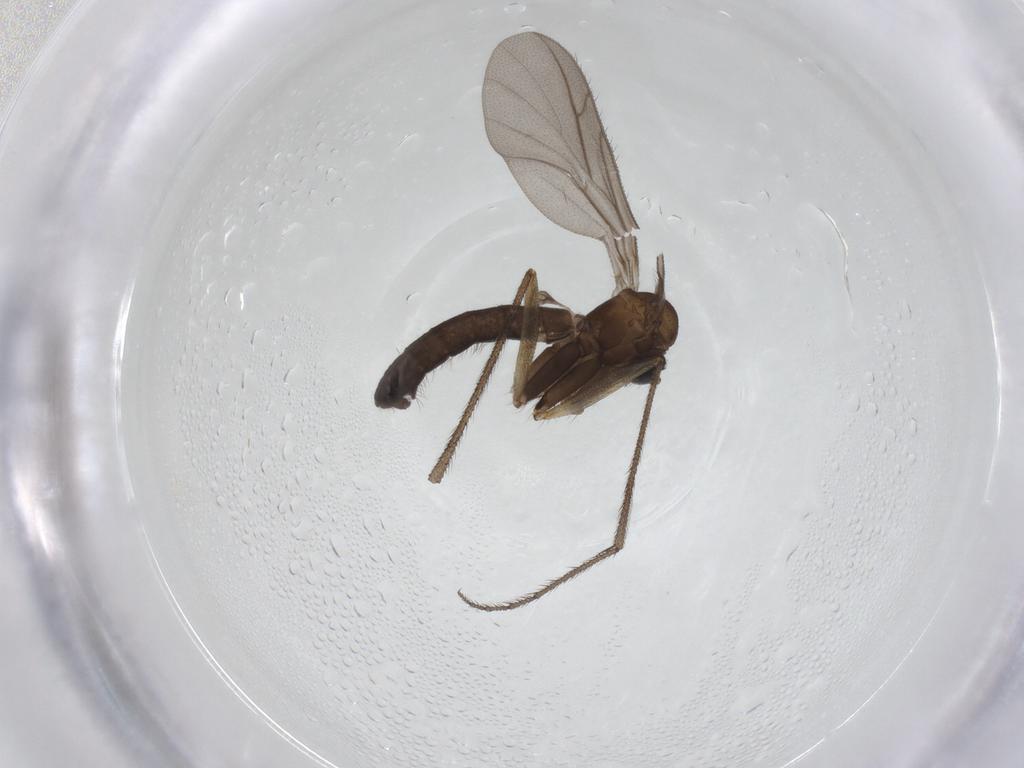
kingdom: Animalia
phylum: Arthropoda
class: Insecta
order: Diptera
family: Ditomyiidae
